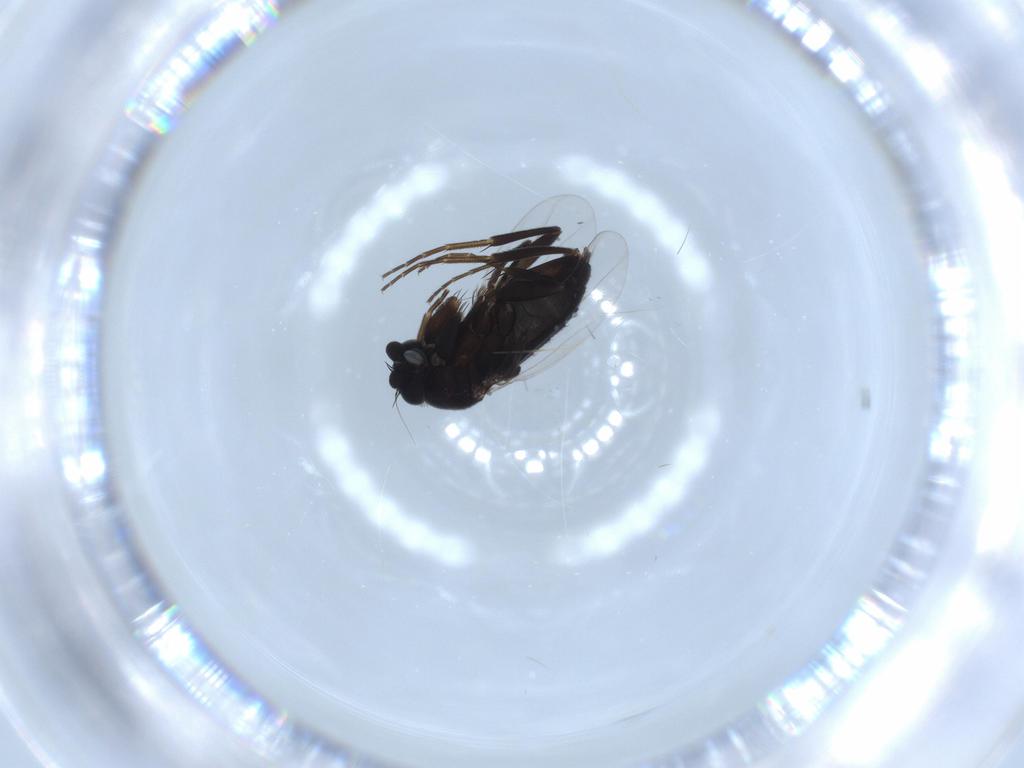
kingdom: Animalia
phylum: Arthropoda
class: Insecta
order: Diptera
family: Phoridae
